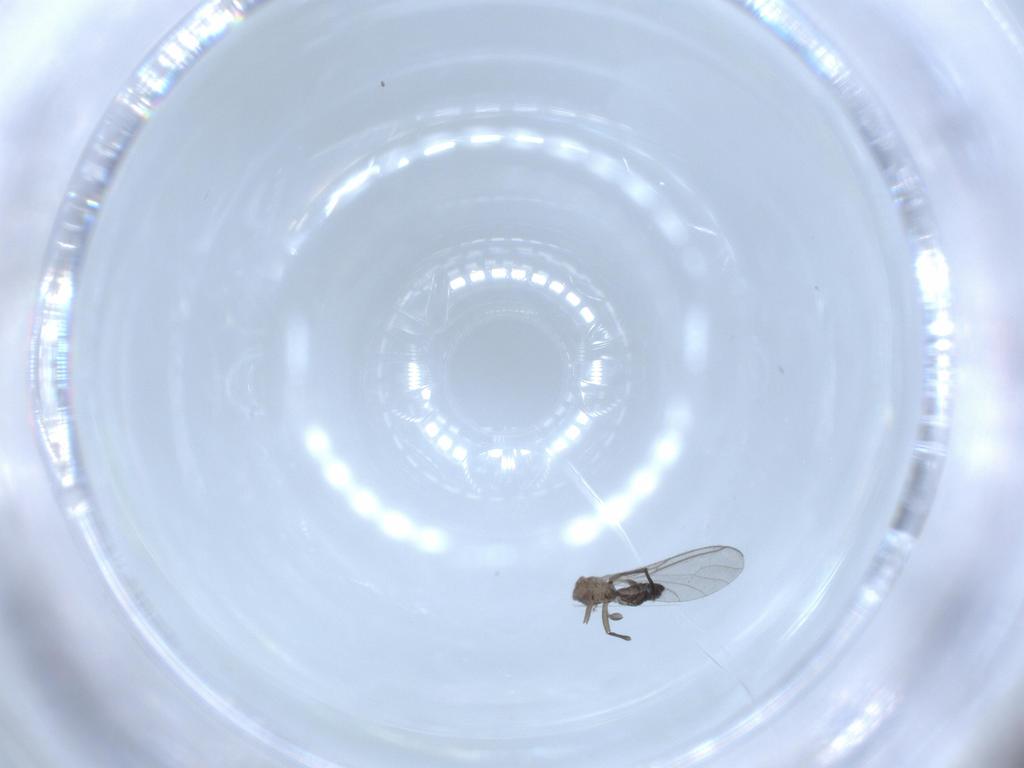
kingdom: Animalia
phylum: Arthropoda
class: Insecta
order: Diptera
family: Sciaridae
